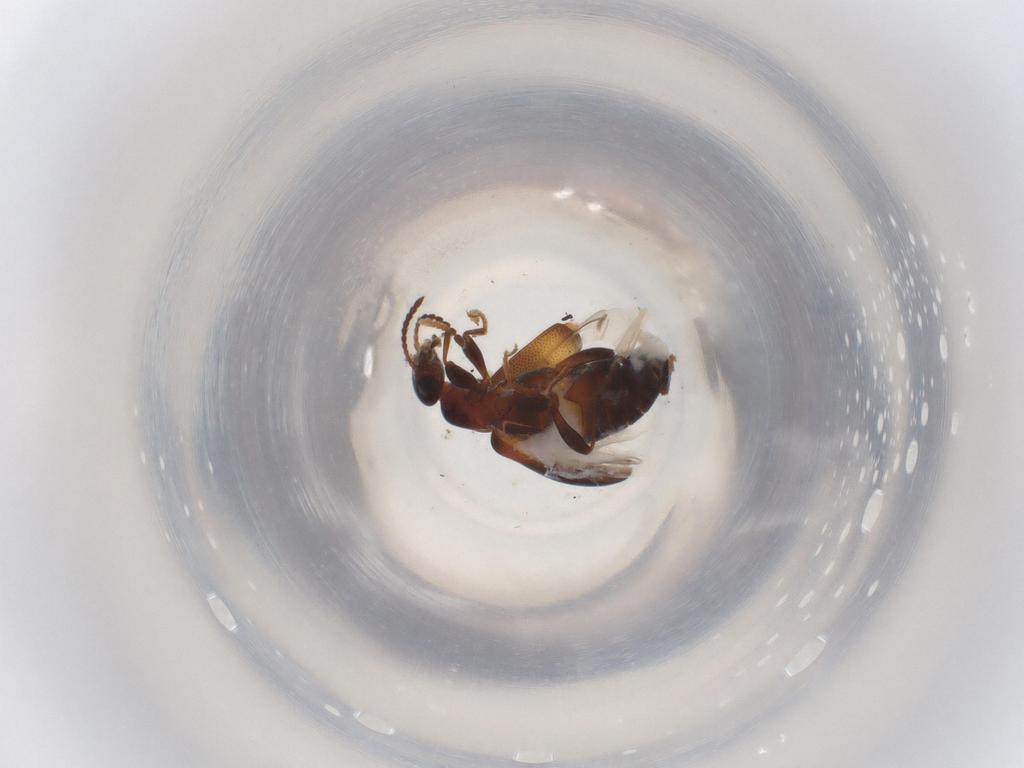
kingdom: Animalia
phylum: Arthropoda
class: Insecta
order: Coleoptera
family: Anthicidae
